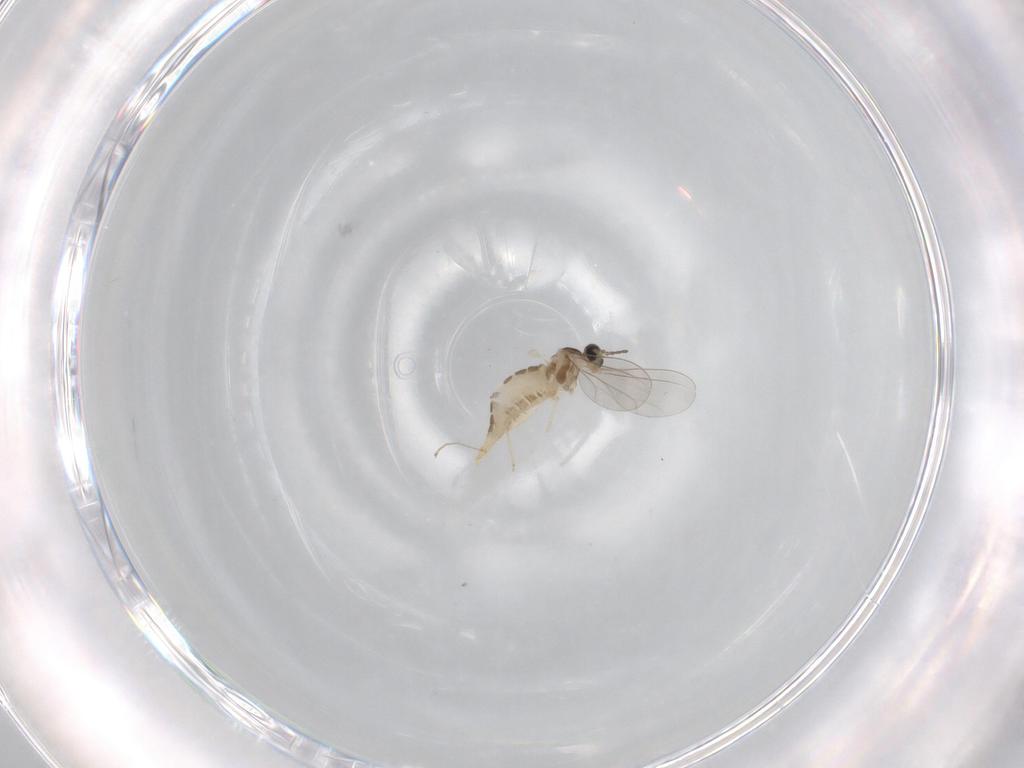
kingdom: Animalia
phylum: Arthropoda
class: Insecta
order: Diptera
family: Cecidomyiidae
